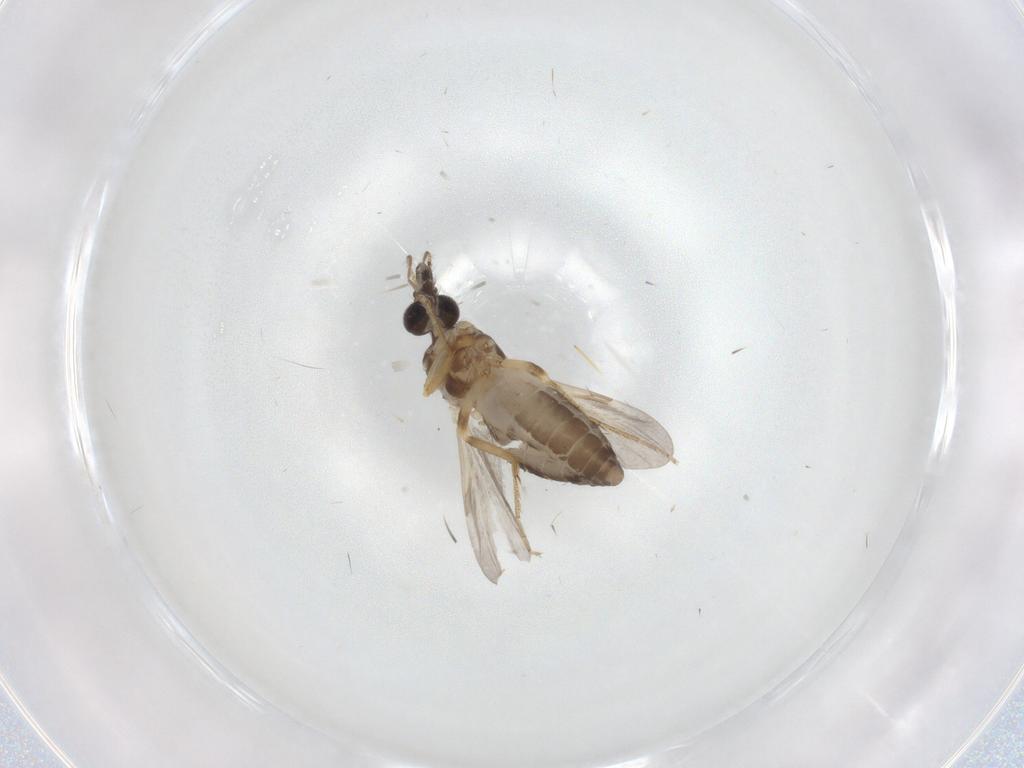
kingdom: Animalia
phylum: Arthropoda
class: Insecta
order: Diptera
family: Ceratopogonidae
